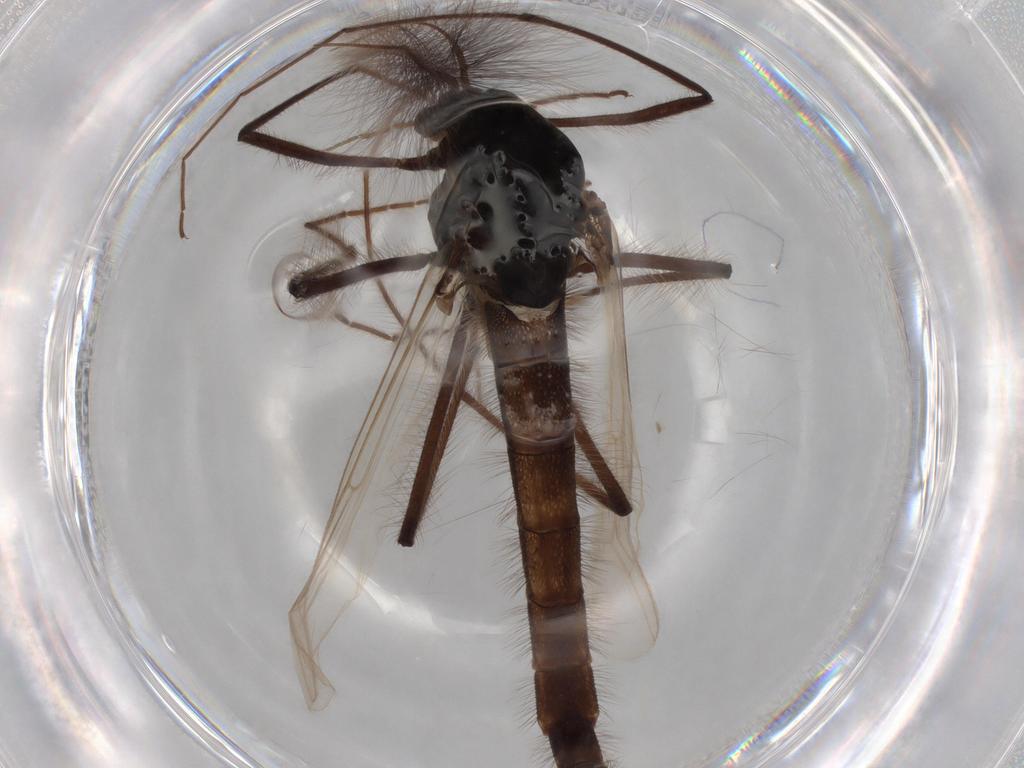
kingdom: Animalia
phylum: Arthropoda
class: Insecta
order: Diptera
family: Chironomidae
